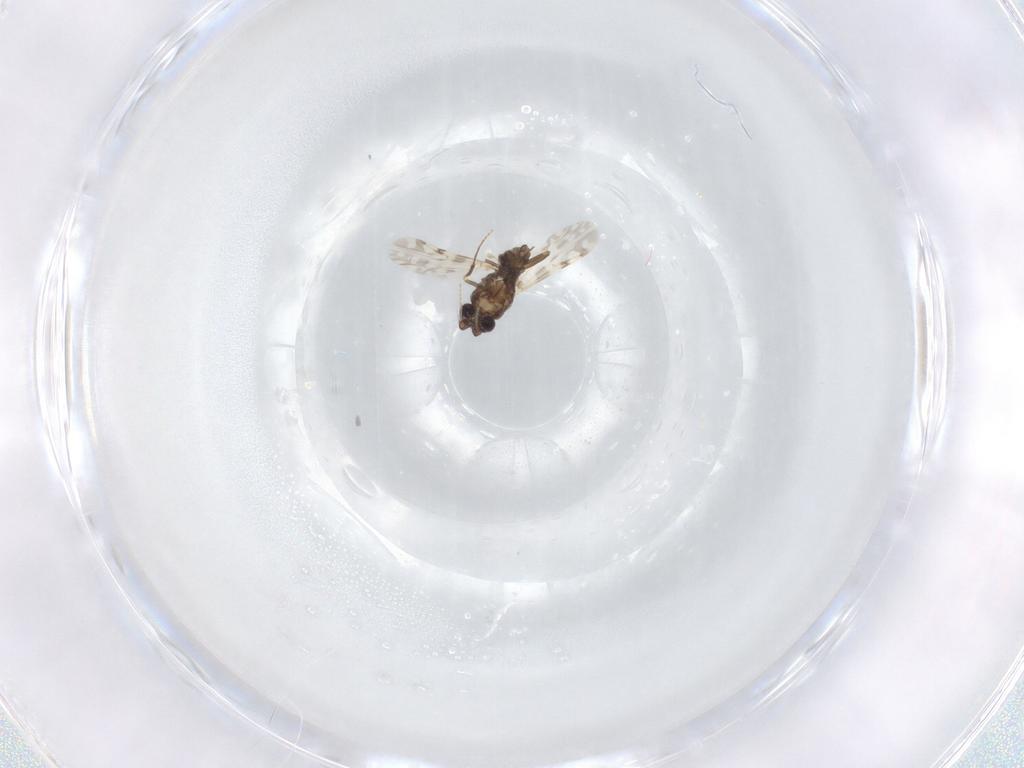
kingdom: Animalia
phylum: Arthropoda
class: Insecta
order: Diptera
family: Ceratopogonidae
